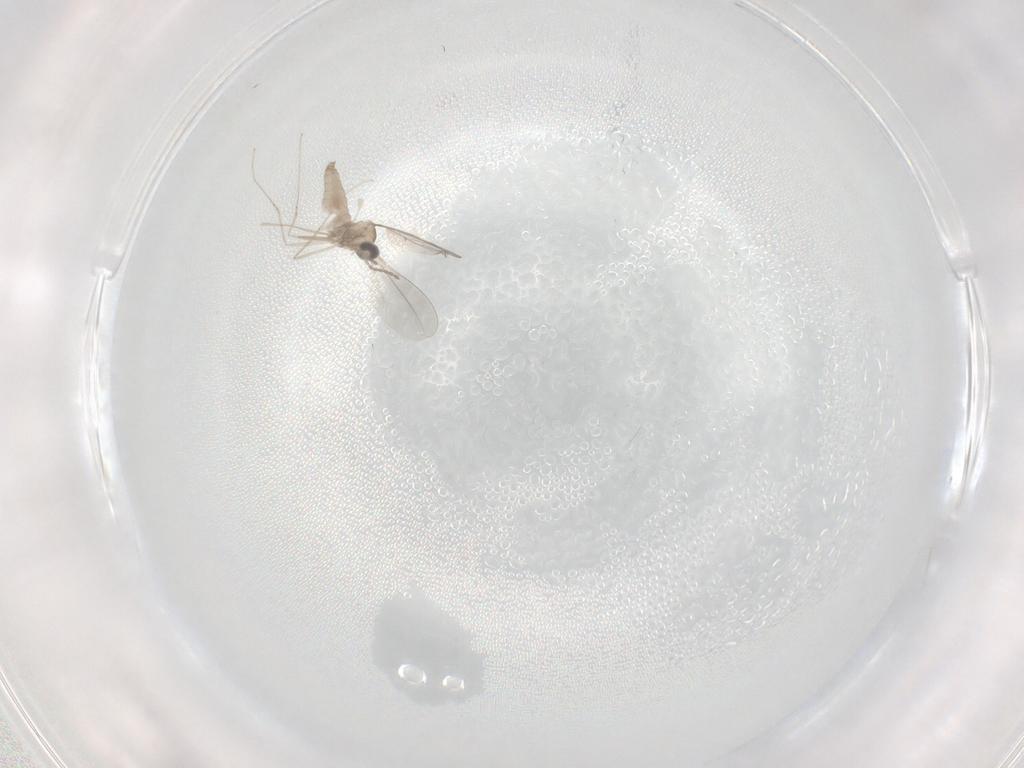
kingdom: Animalia
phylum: Arthropoda
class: Insecta
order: Diptera
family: Cecidomyiidae
